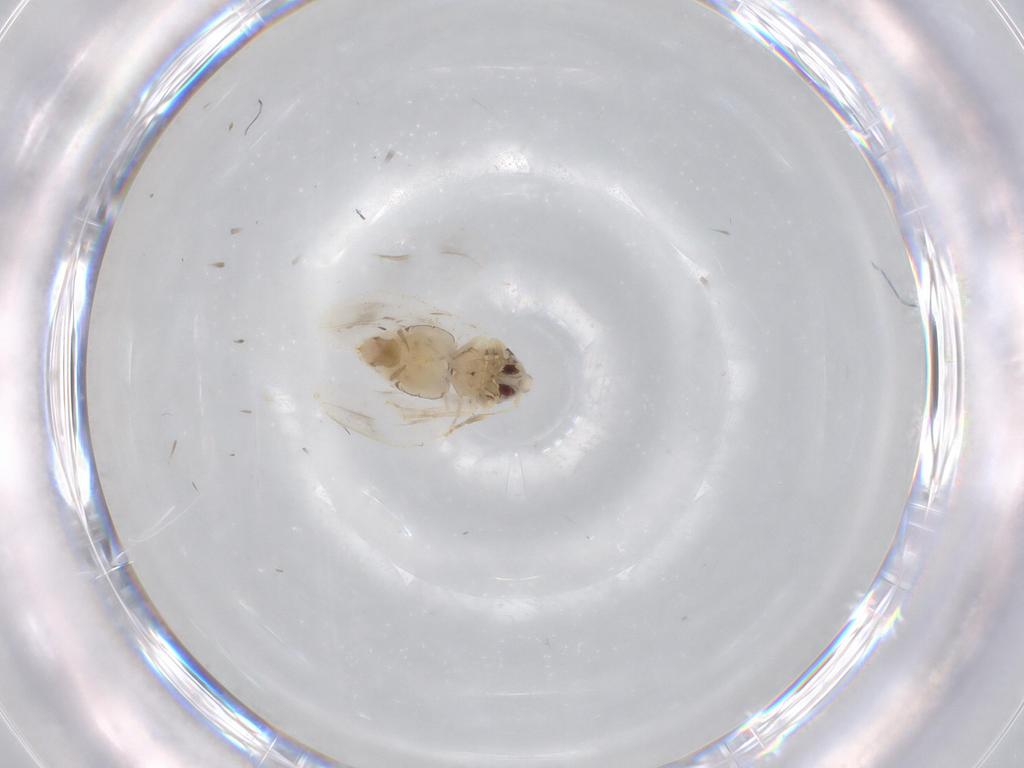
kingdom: Animalia
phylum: Arthropoda
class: Insecta
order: Hemiptera
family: Aleyrodidae
